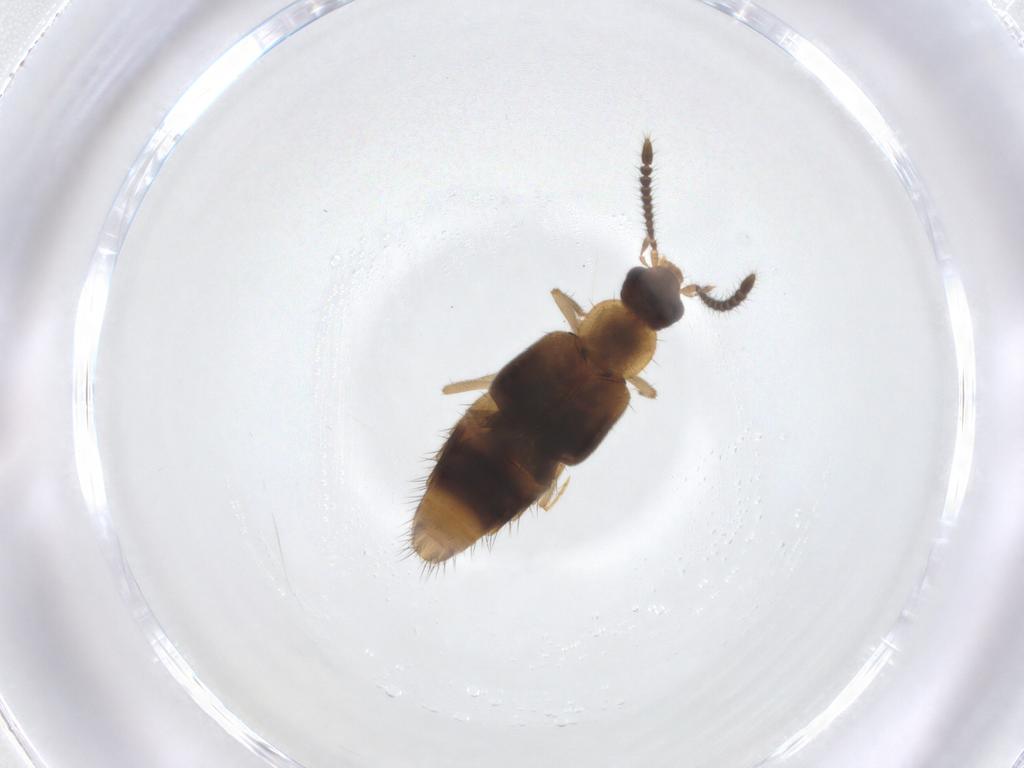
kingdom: Animalia
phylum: Arthropoda
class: Insecta
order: Coleoptera
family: Staphylinidae
